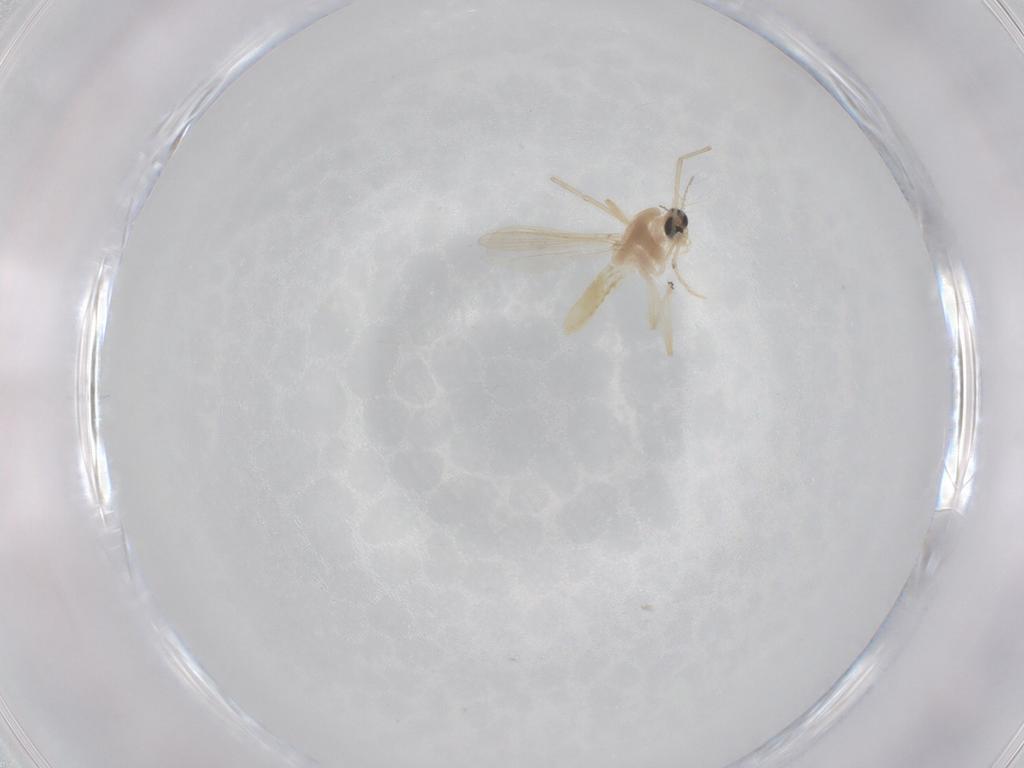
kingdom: Animalia
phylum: Arthropoda
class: Insecta
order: Diptera
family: Chironomidae
